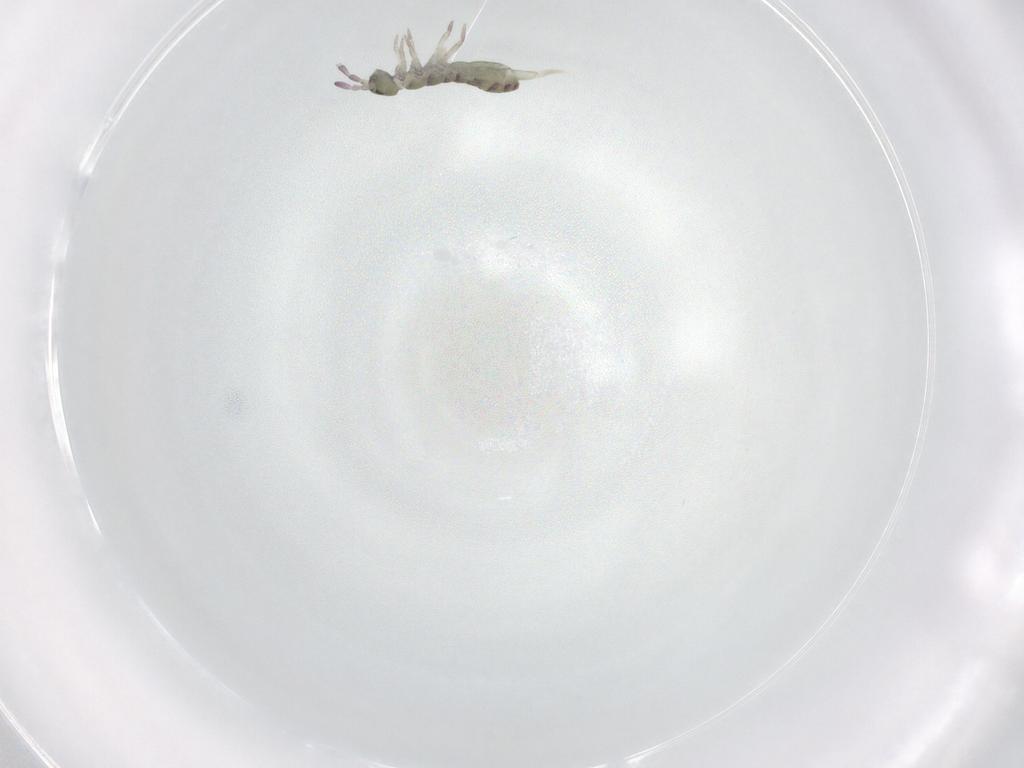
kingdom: Animalia
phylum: Arthropoda
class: Collembola
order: Entomobryomorpha
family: Isotomidae
